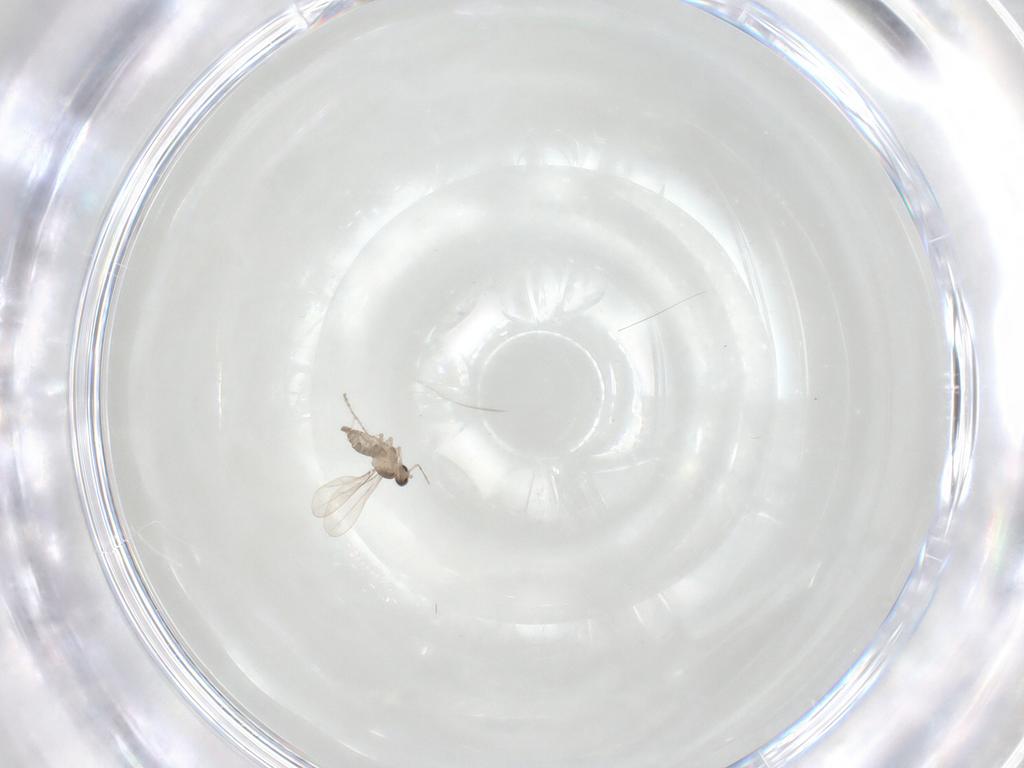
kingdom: Animalia
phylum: Arthropoda
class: Insecta
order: Diptera
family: Cecidomyiidae
